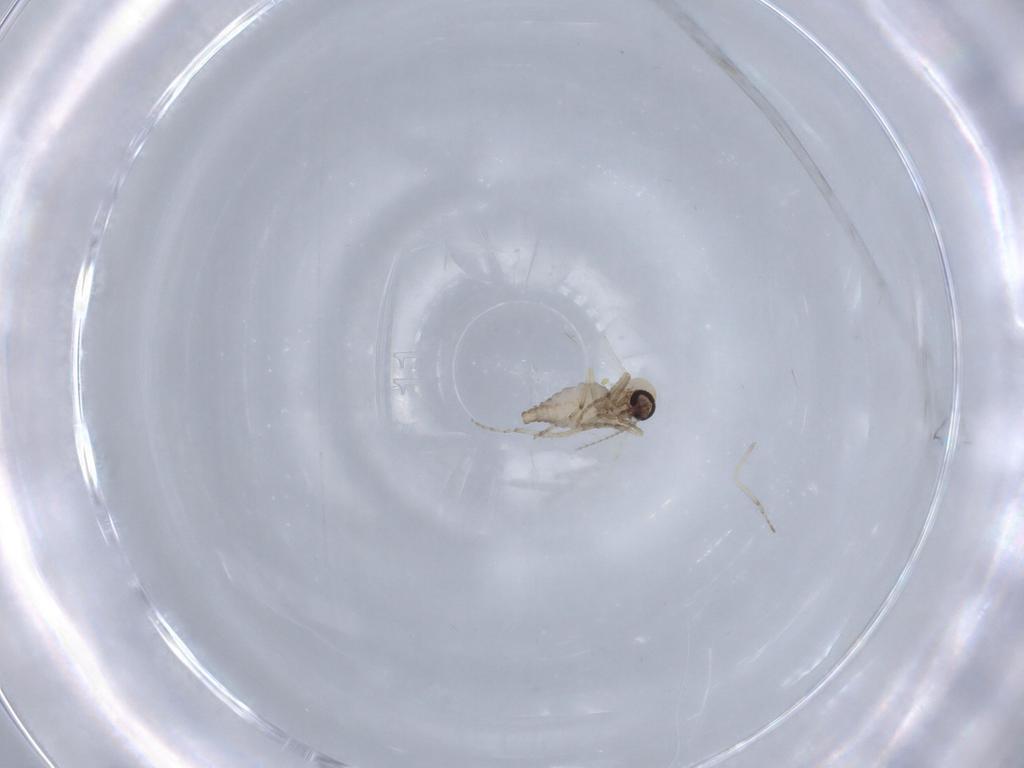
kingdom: Animalia
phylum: Arthropoda
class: Insecta
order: Diptera
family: Ceratopogonidae
